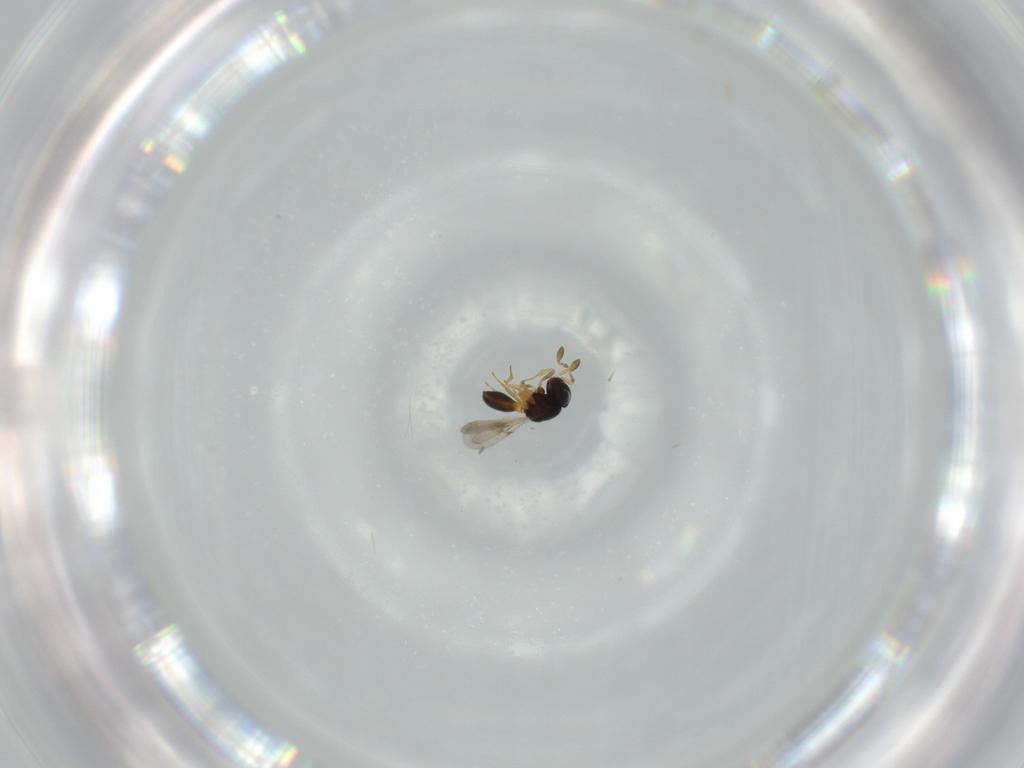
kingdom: Animalia
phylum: Arthropoda
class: Insecta
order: Hymenoptera
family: Scelionidae
